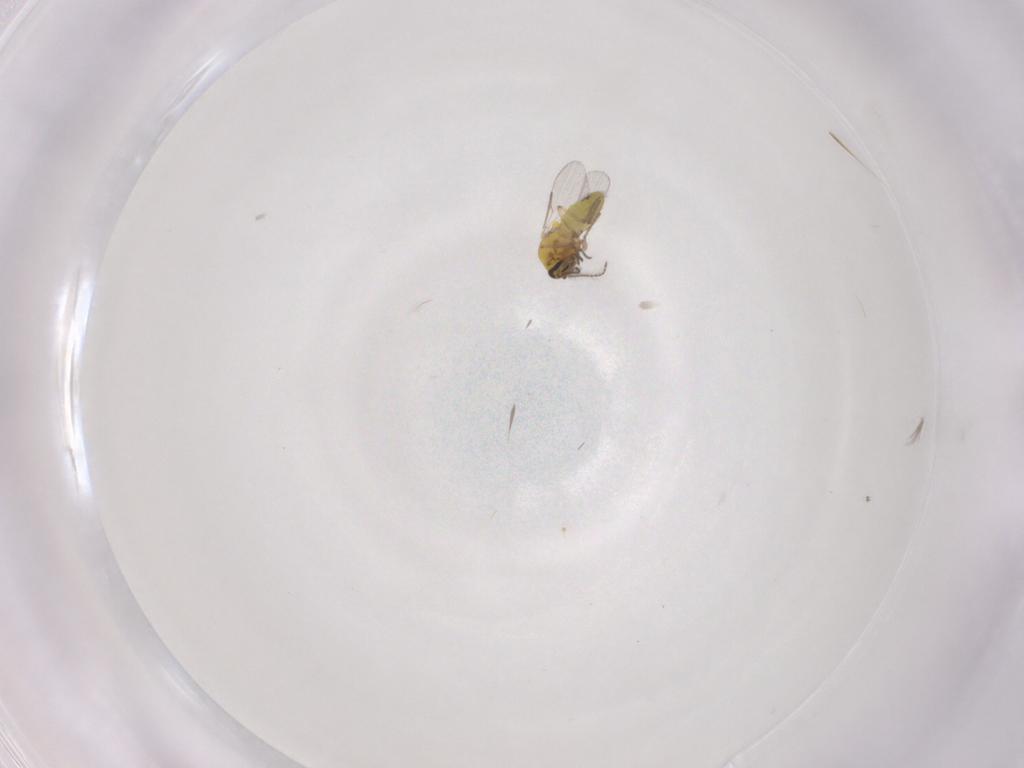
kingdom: Animalia
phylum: Arthropoda
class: Insecta
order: Diptera
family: Ceratopogonidae
